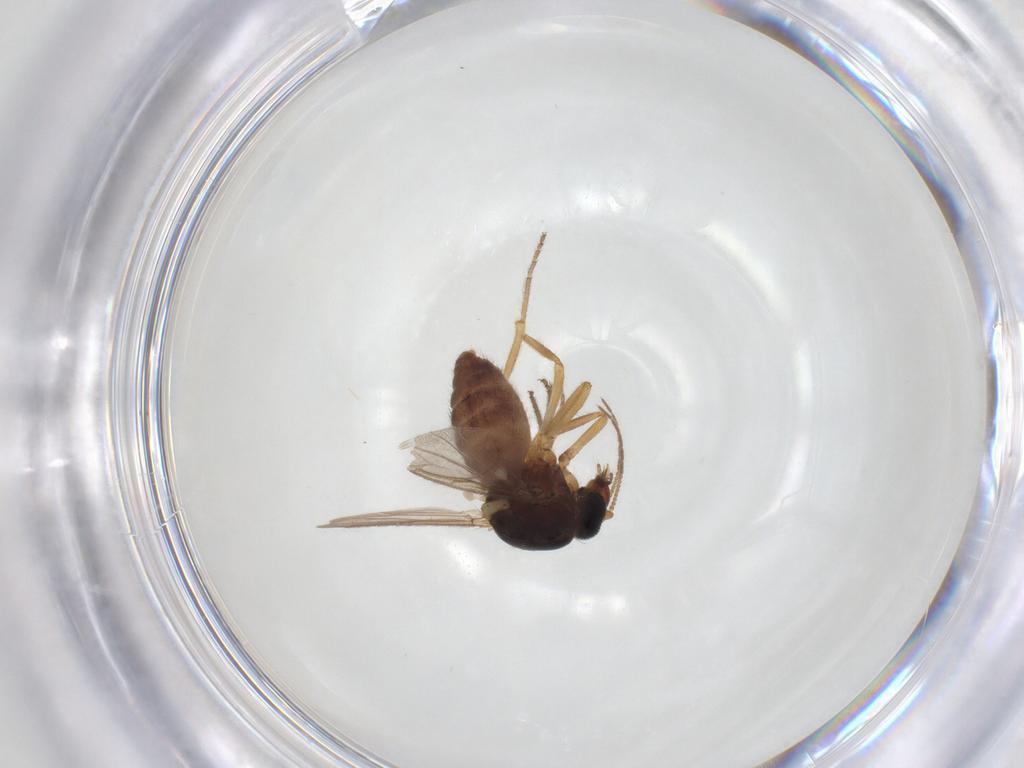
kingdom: Animalia
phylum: Arthropoda
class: Insecta
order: Diptera
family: Ceratopogonidae
